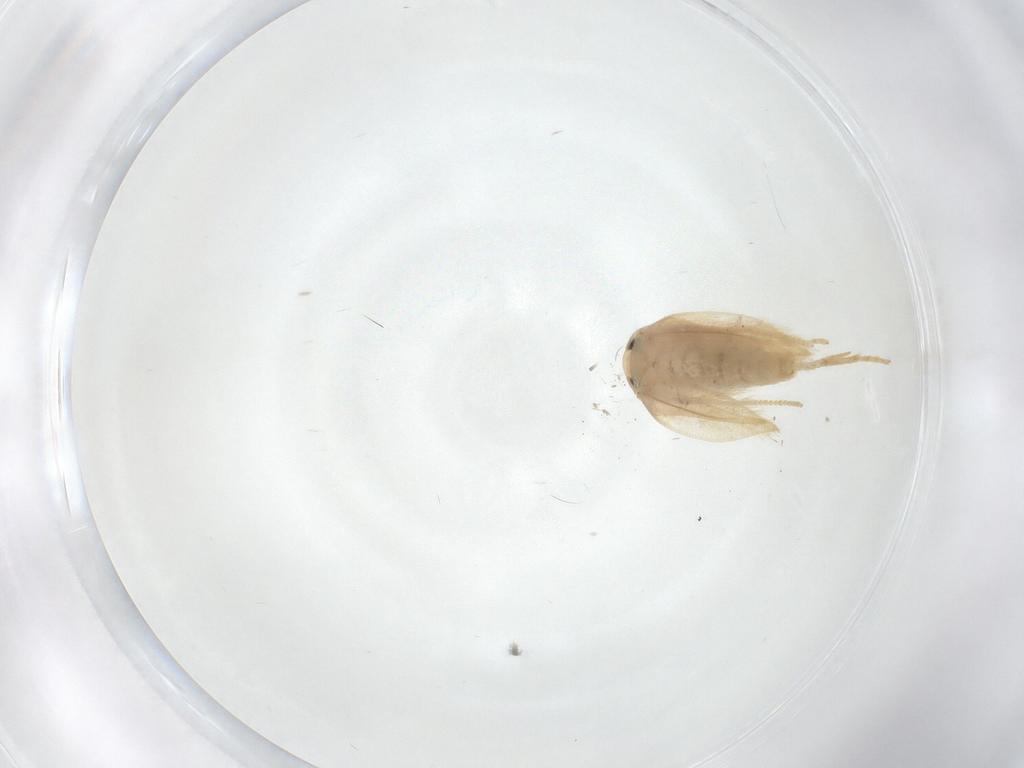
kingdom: Animalia
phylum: Arthropoda
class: Insecta
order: Lepidoptera
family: Opostegidae
